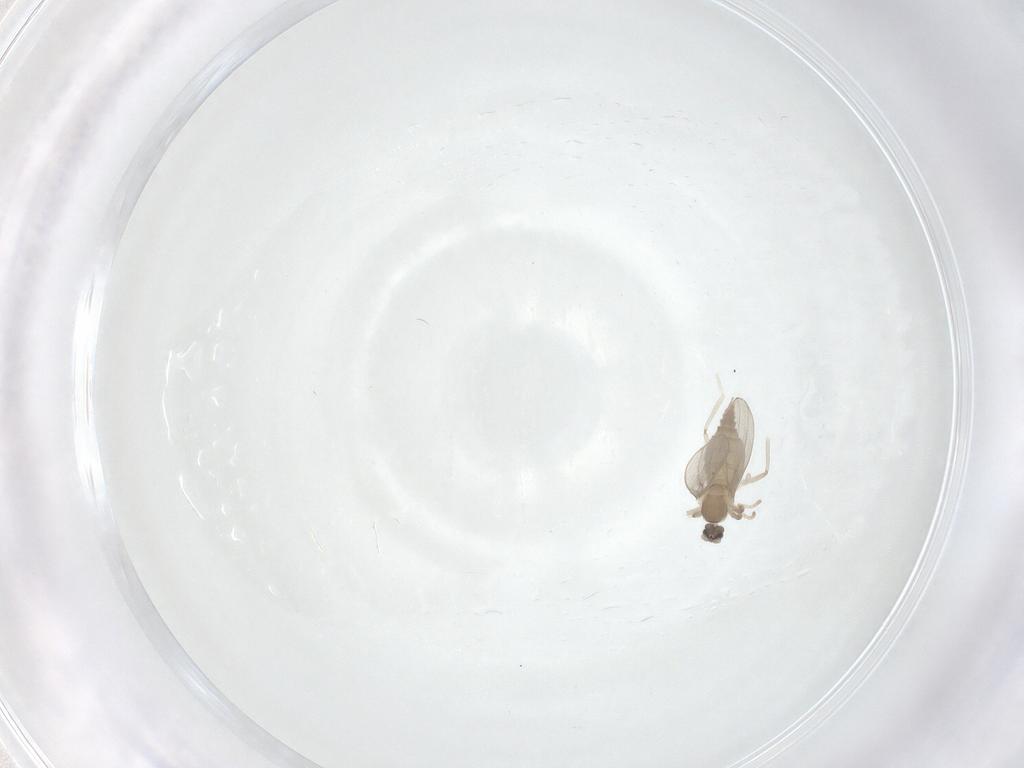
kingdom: Animalia
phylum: Arthropoda
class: Insecta
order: Diptera
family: Cecidomyiidae
